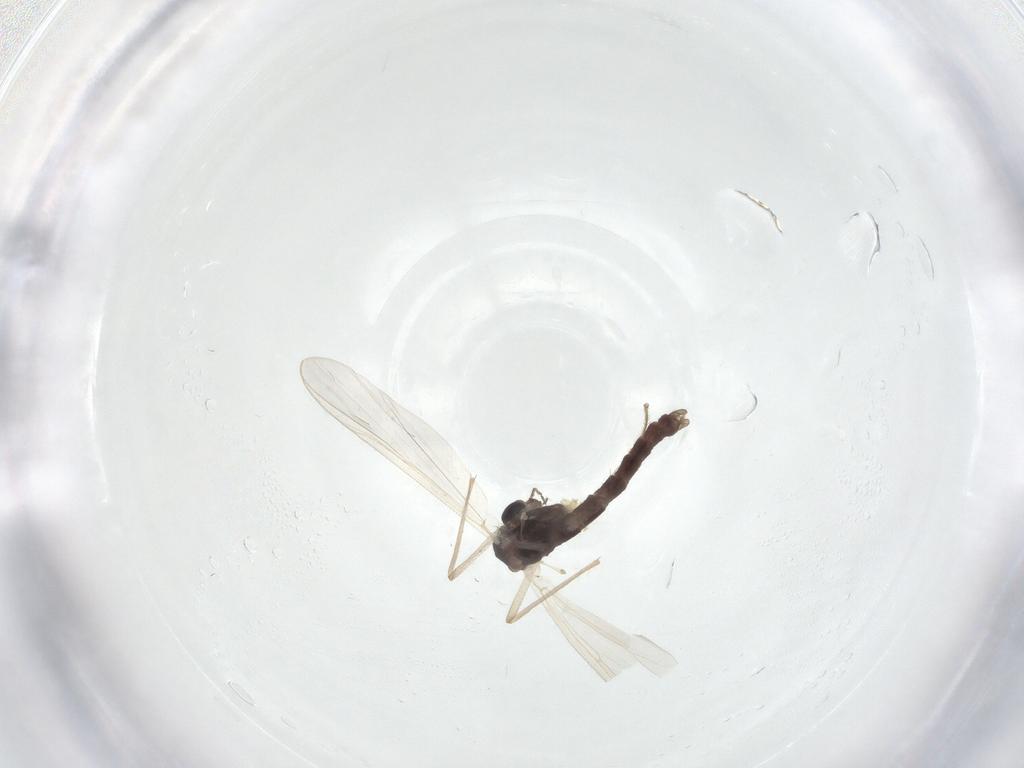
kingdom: Animalia
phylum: Arthropoda
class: Insecta
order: Diptera
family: Chironomidae
